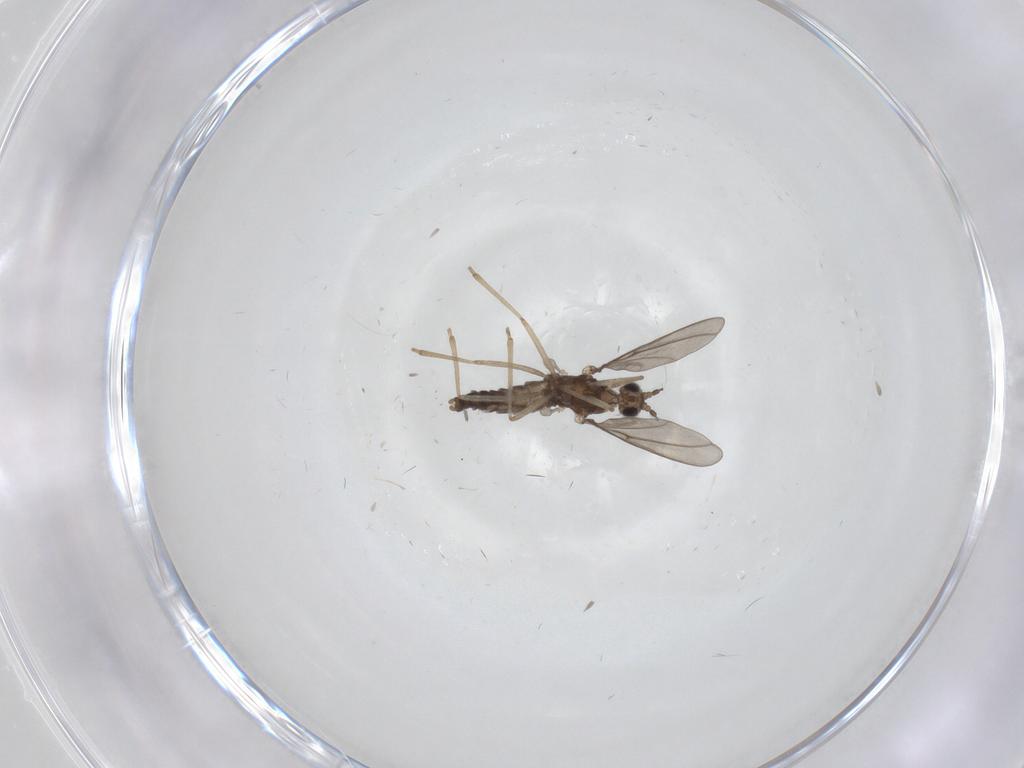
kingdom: Animalia
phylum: Arthropoda
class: Insecta
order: Diptera
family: Cecidomyiidae
